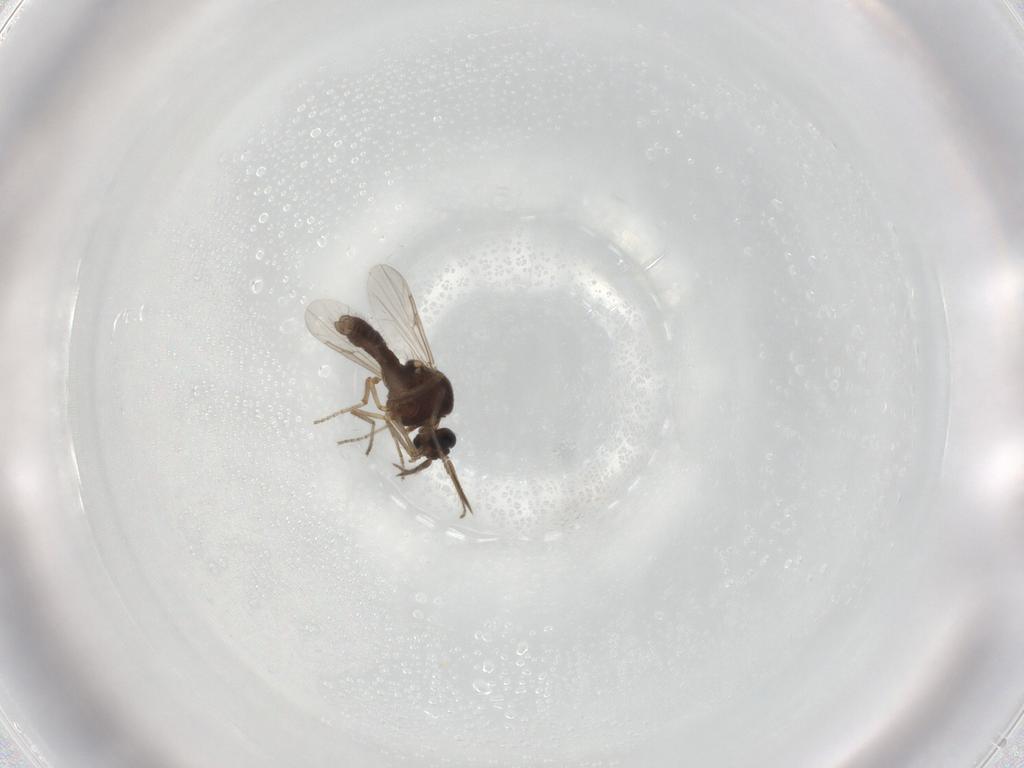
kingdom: Animalia
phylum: Arthropoda
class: Insecta
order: Diptera
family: Ceratopogonidae
